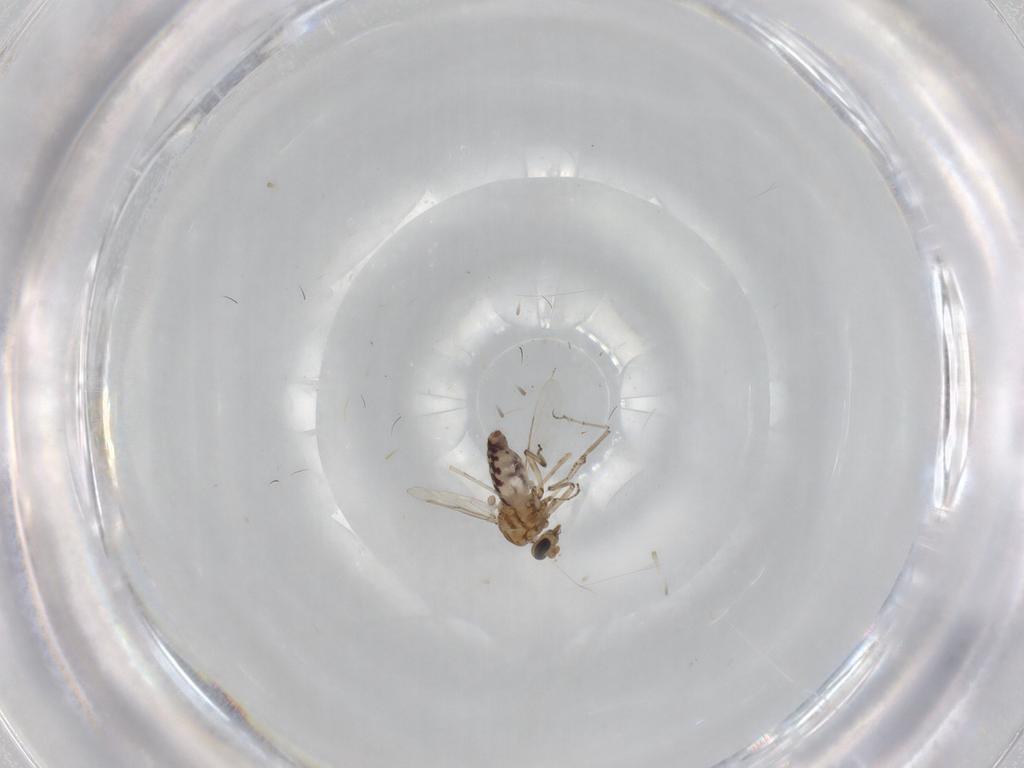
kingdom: Animalia
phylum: Arthropoda
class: Insecta
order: Diptera
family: Ceratopogonidae
